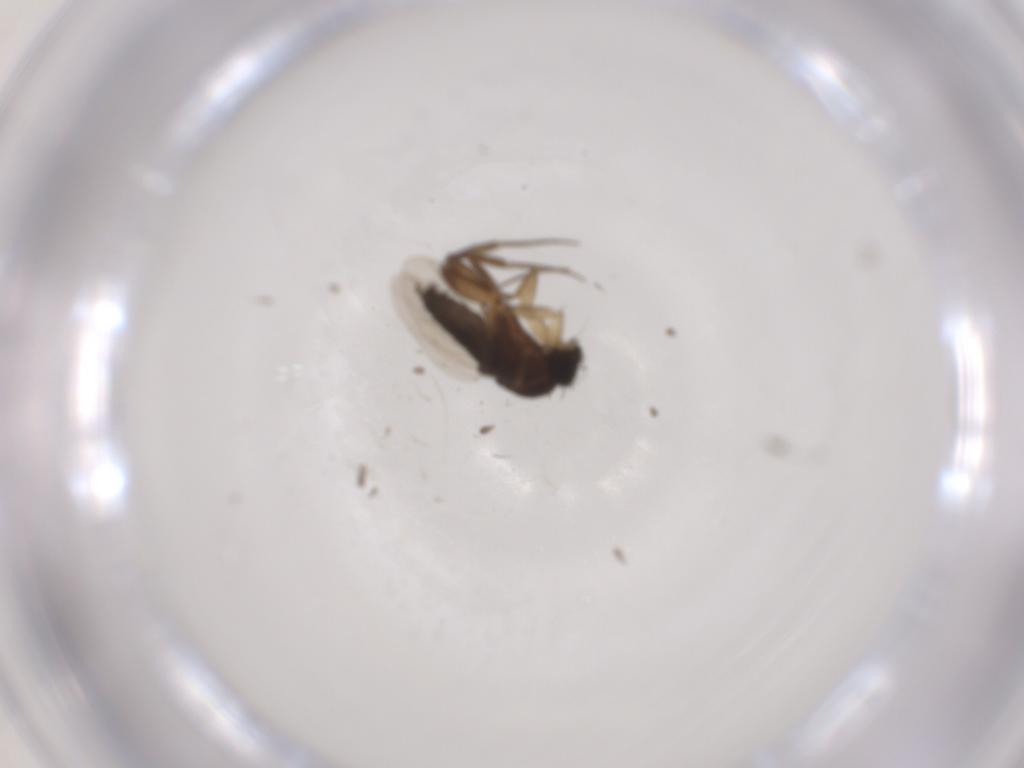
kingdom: Animalia
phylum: Arthropoda
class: Insecta
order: Diptera
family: Phoridae
